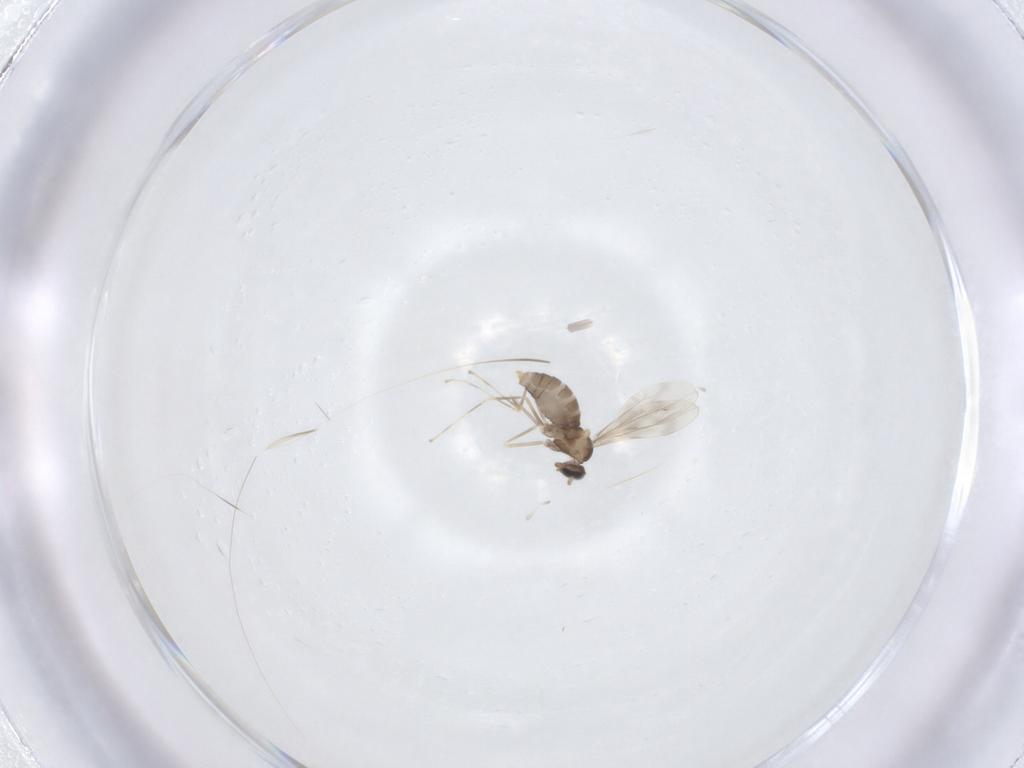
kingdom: Animalia
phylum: Arthropoda
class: Insecta
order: Diptera
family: Cecidomyiidae
